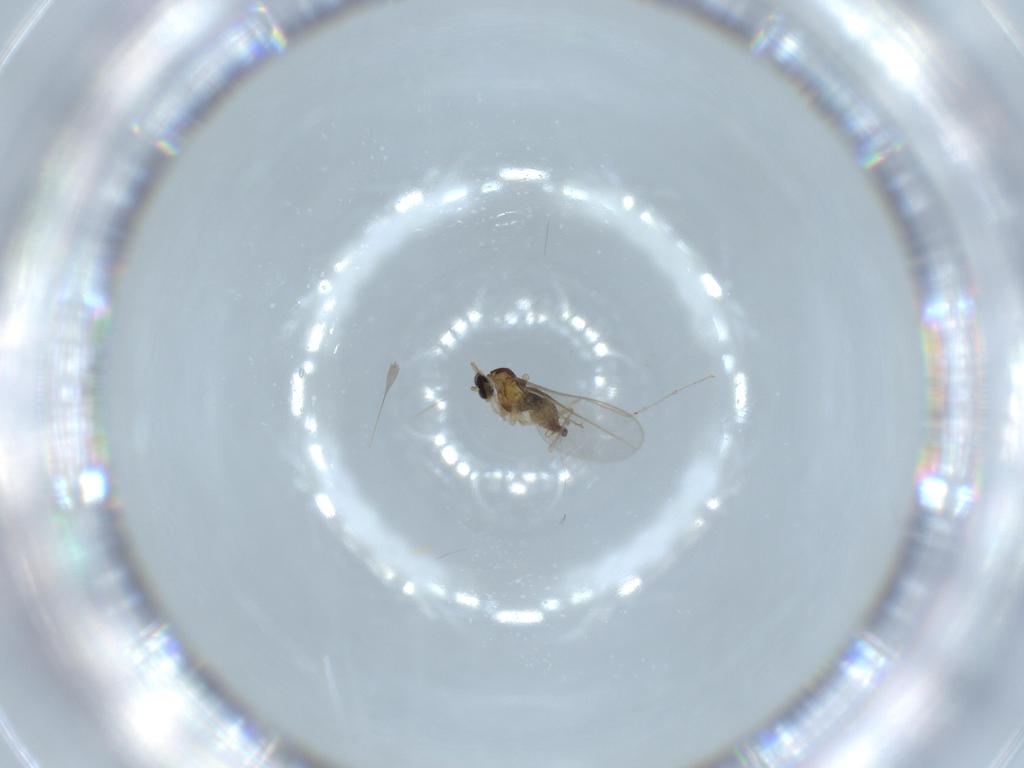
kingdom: Animalia
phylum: Arthropoda
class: Insecta
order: Diptera
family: Cecidomyiidae
